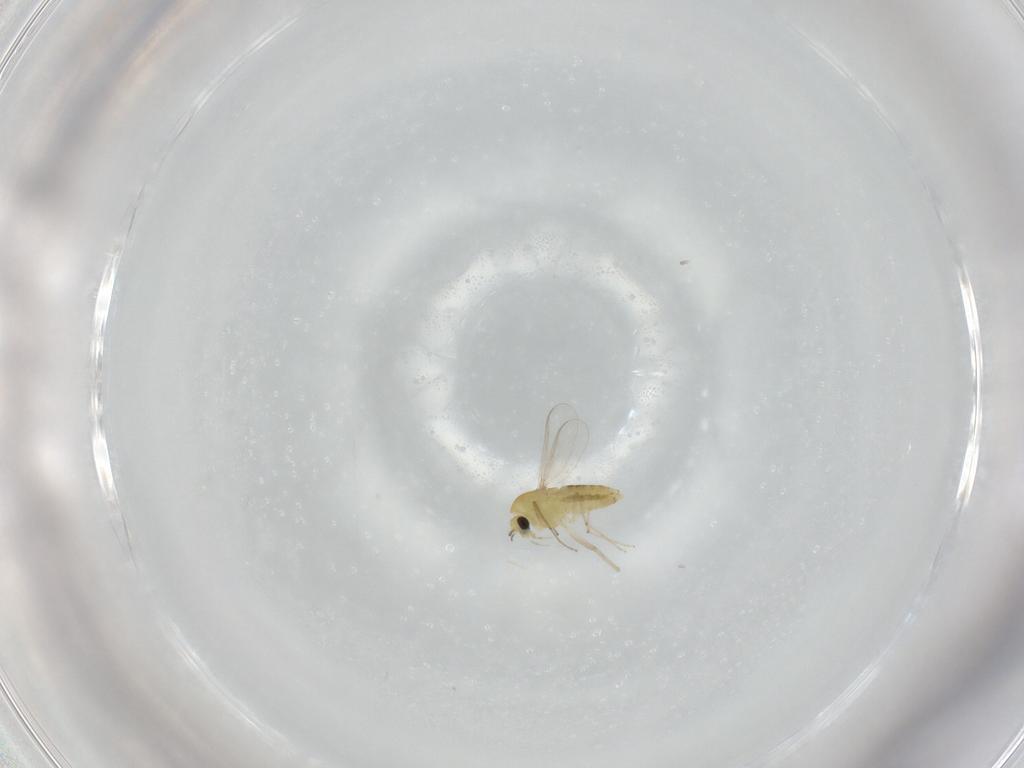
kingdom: Animalia
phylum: Arthropoda
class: Insecta
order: Diptera
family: Chironomidae
